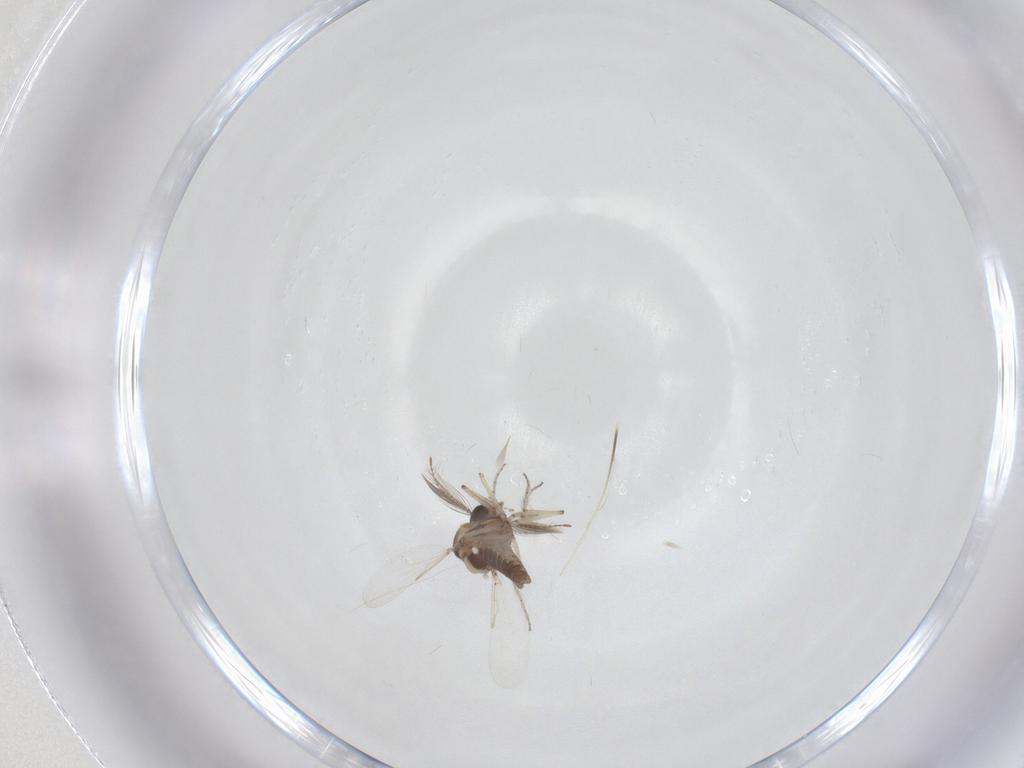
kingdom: Animalia
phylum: Arthropoda
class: Insecta
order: Diptera
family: Ceratopogonidae
